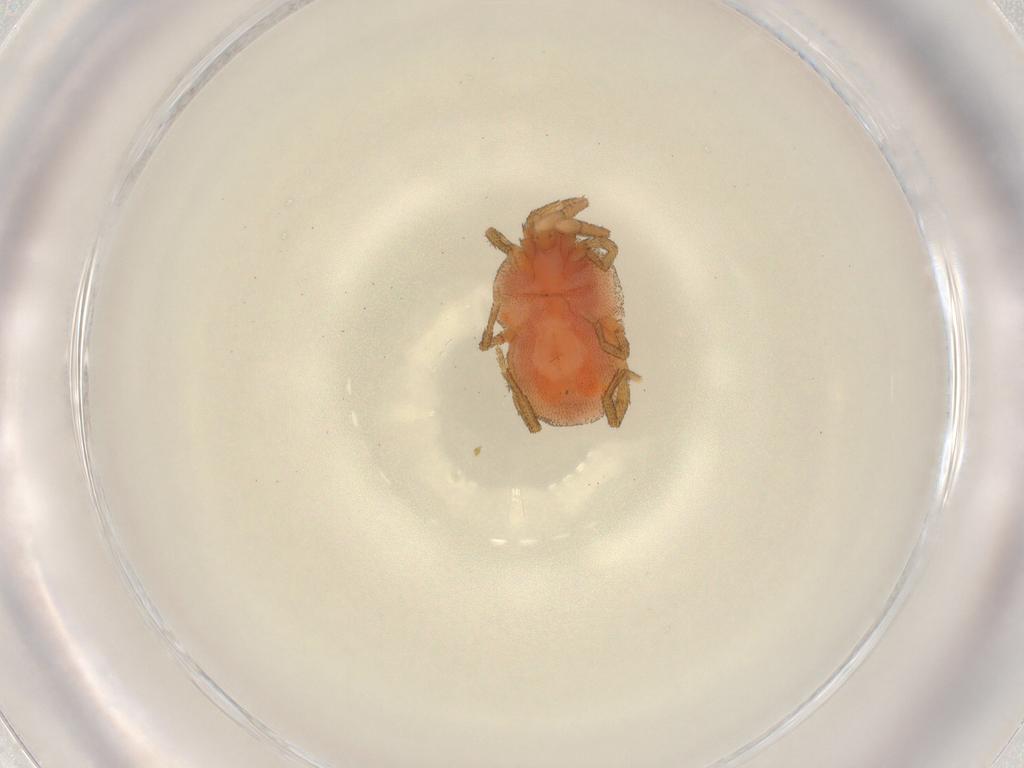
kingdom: Animalia
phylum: Arthropoda
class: Arachnida
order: Trombidiformes
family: Erythraeidae
